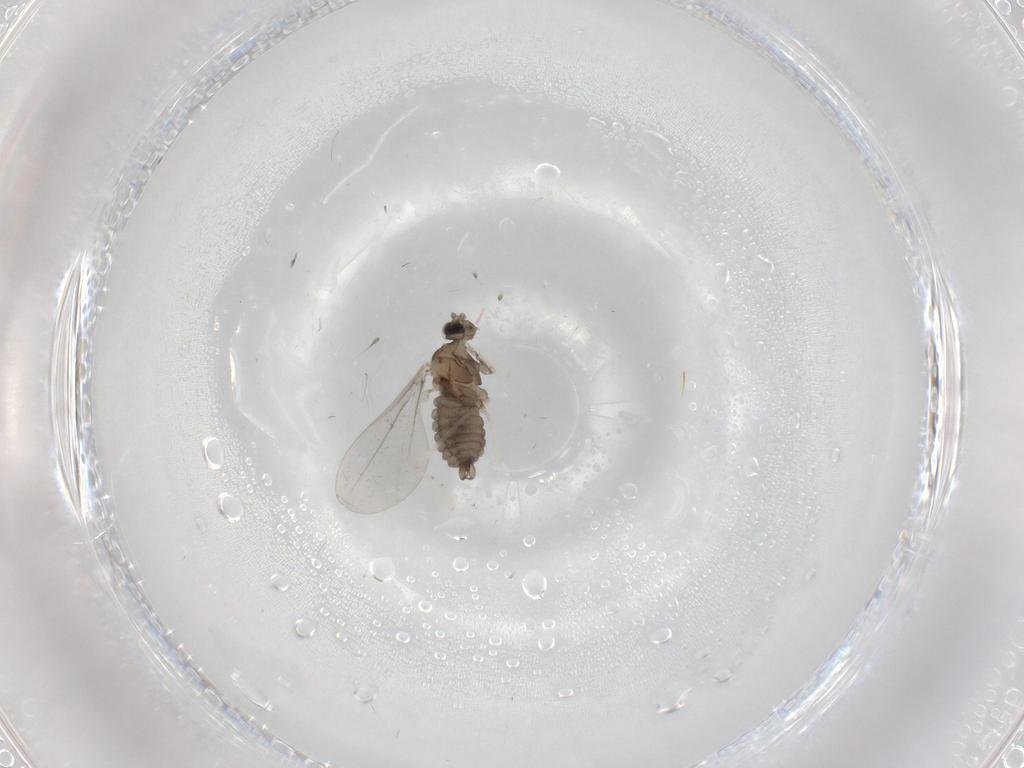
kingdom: Animalia
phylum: Arthropoda
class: Insecta
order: Diptera
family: Cecidomyiidae
